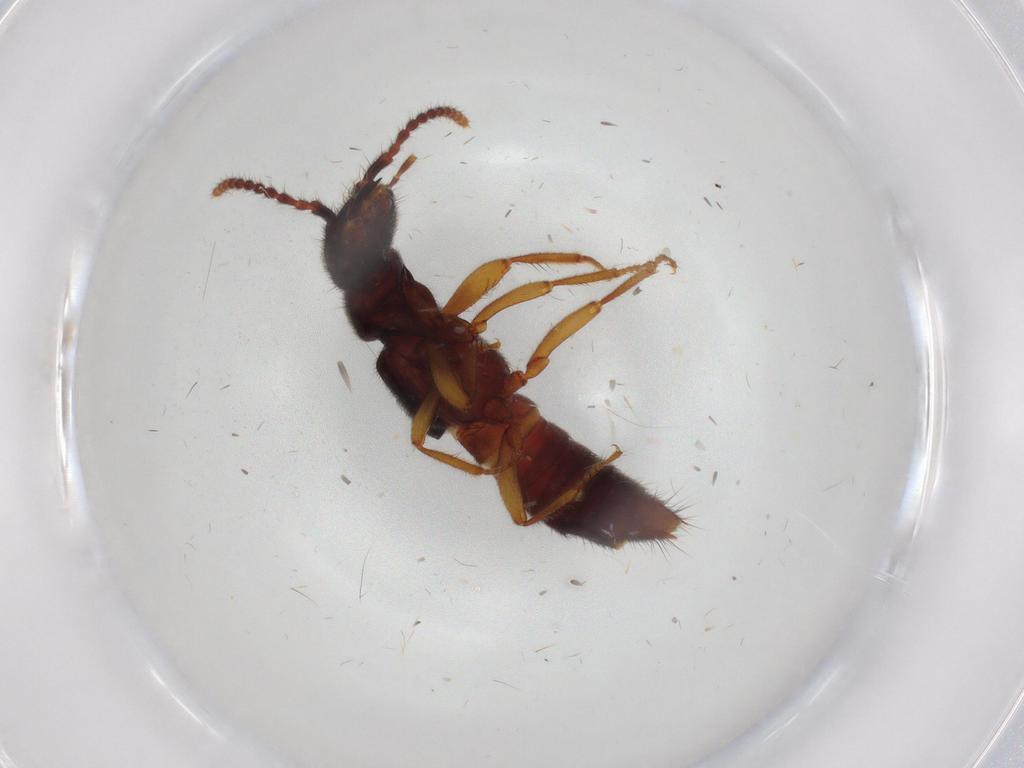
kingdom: Animalia
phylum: Arthropoda
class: Insecta
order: Coleoptera
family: Staphylinidae
